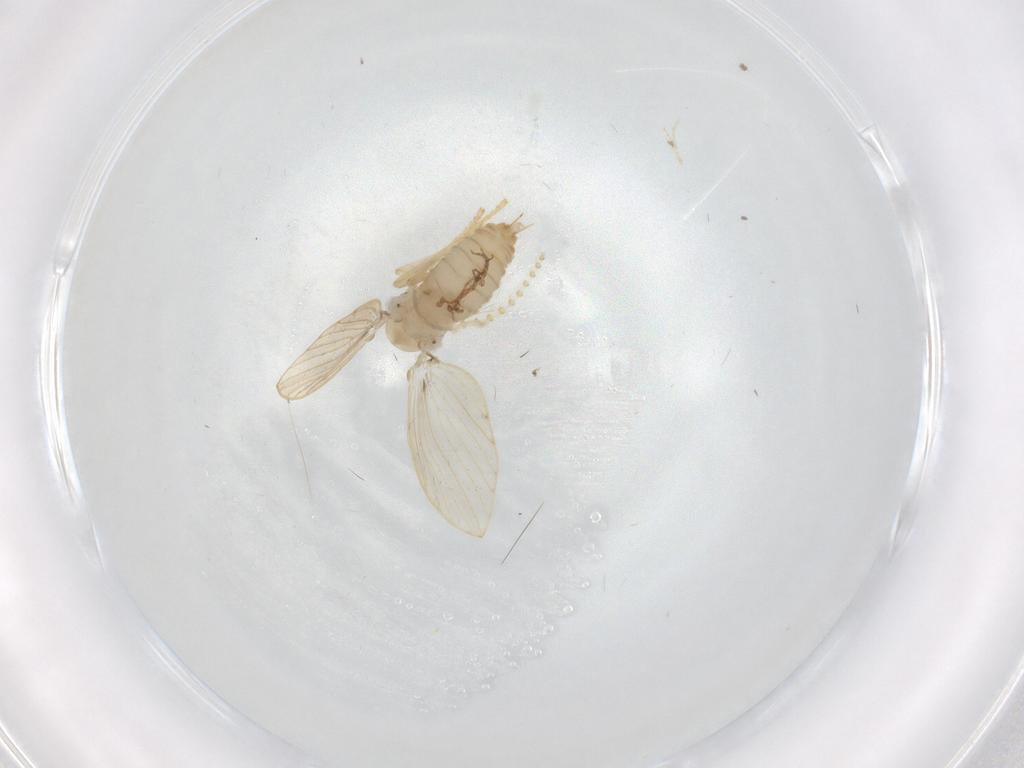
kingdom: Animalia
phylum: Arthropoda
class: Insecta
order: Diptera
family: Psychodidae
